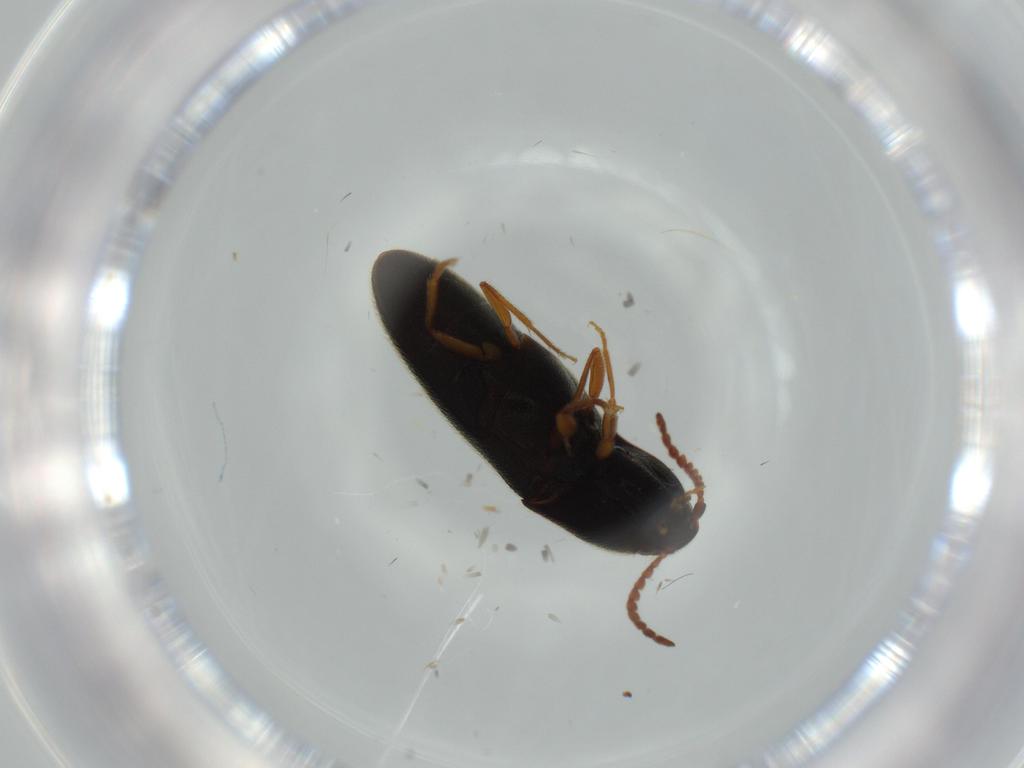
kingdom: Animalia
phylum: Arthropoda
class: Insecta
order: Coleoptera
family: Elateridae
